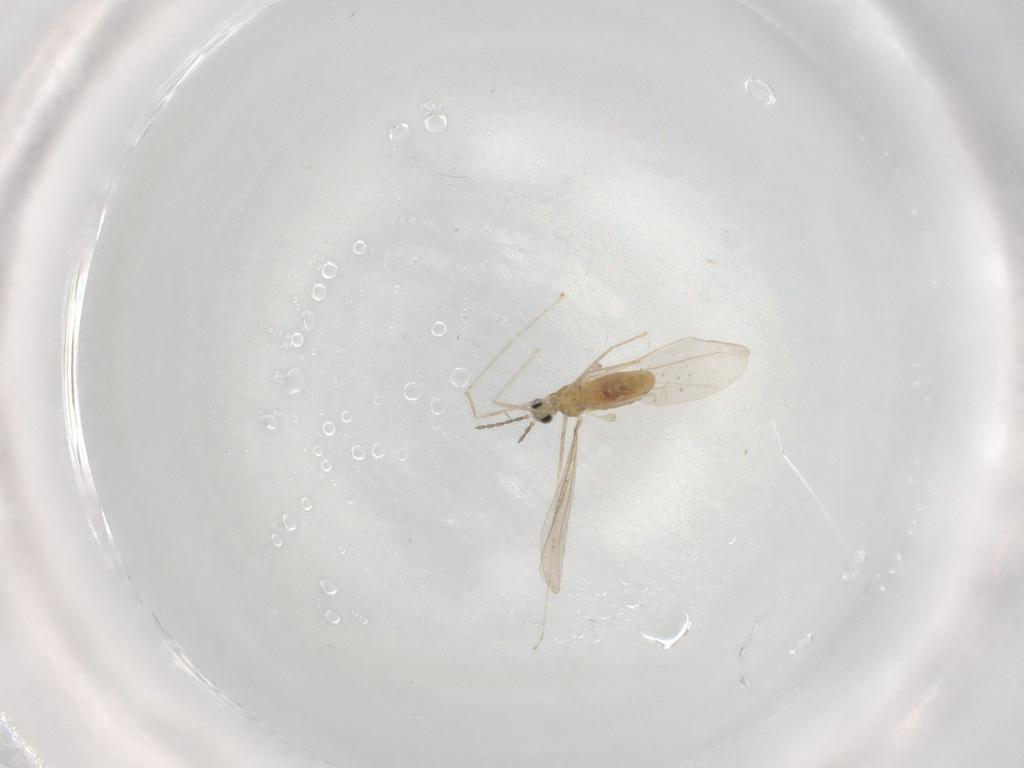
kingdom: Animalia
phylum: Arthropoda
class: Insecta
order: Diptera
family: Cecidomyiidae
